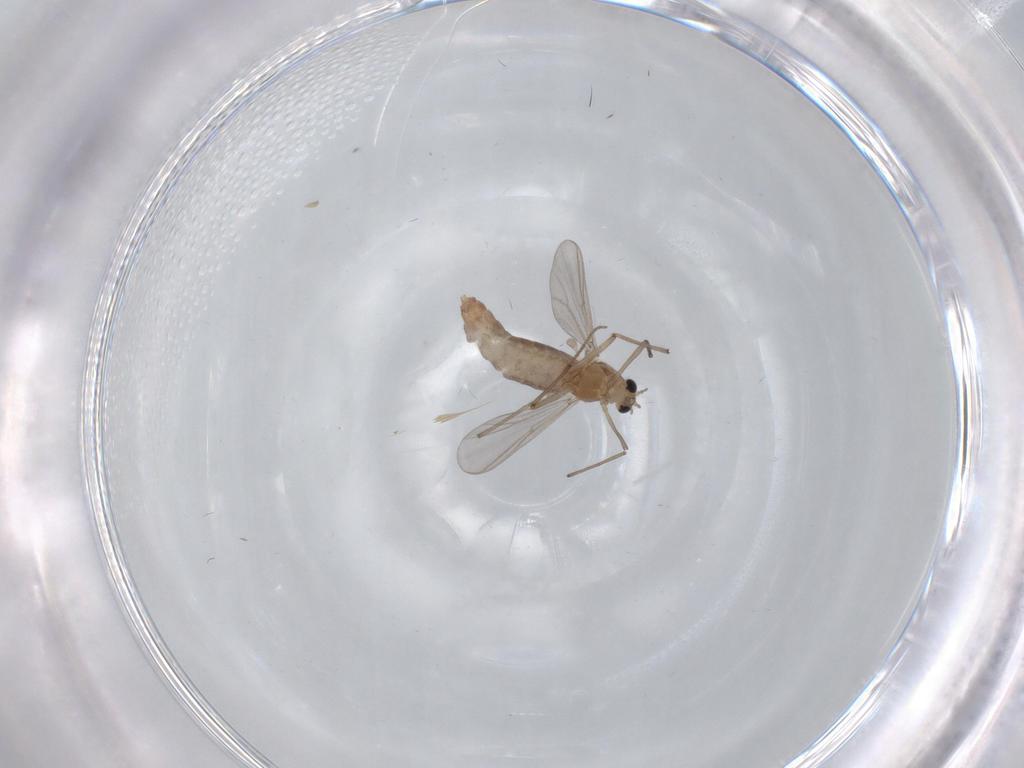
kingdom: Animalia
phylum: Arthropoda
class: Insecta
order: Diptera
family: Chironomidae
